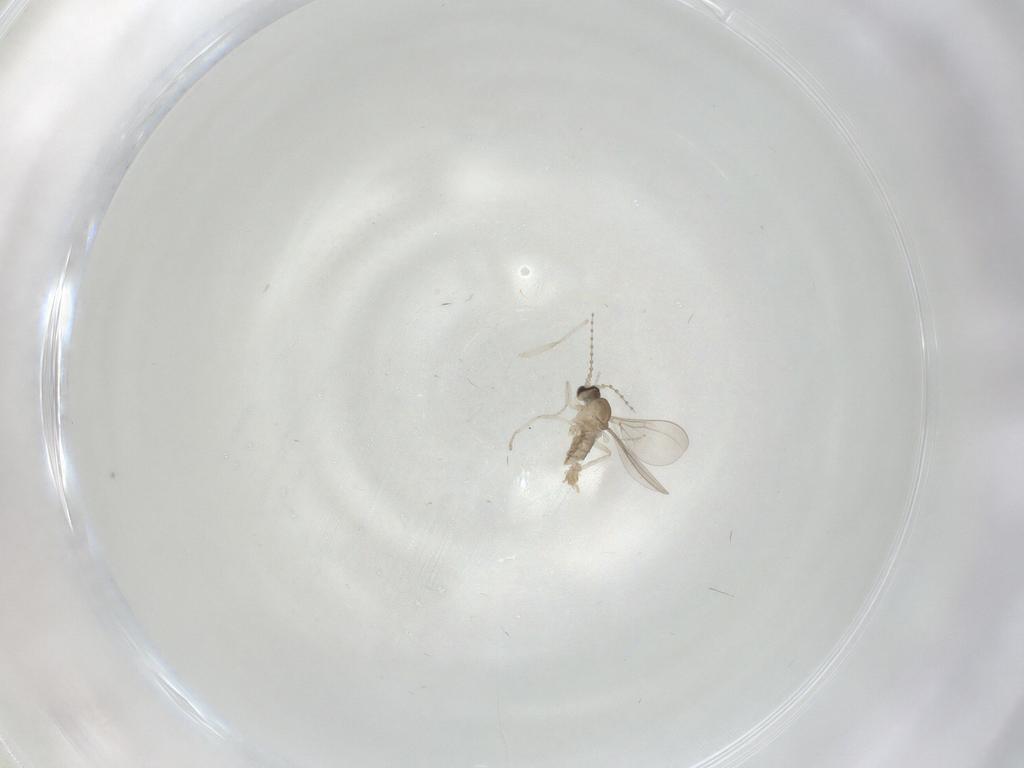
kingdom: Animalia
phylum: Arthropoda
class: Insecta
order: Diptera
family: Cecidomyiidae
